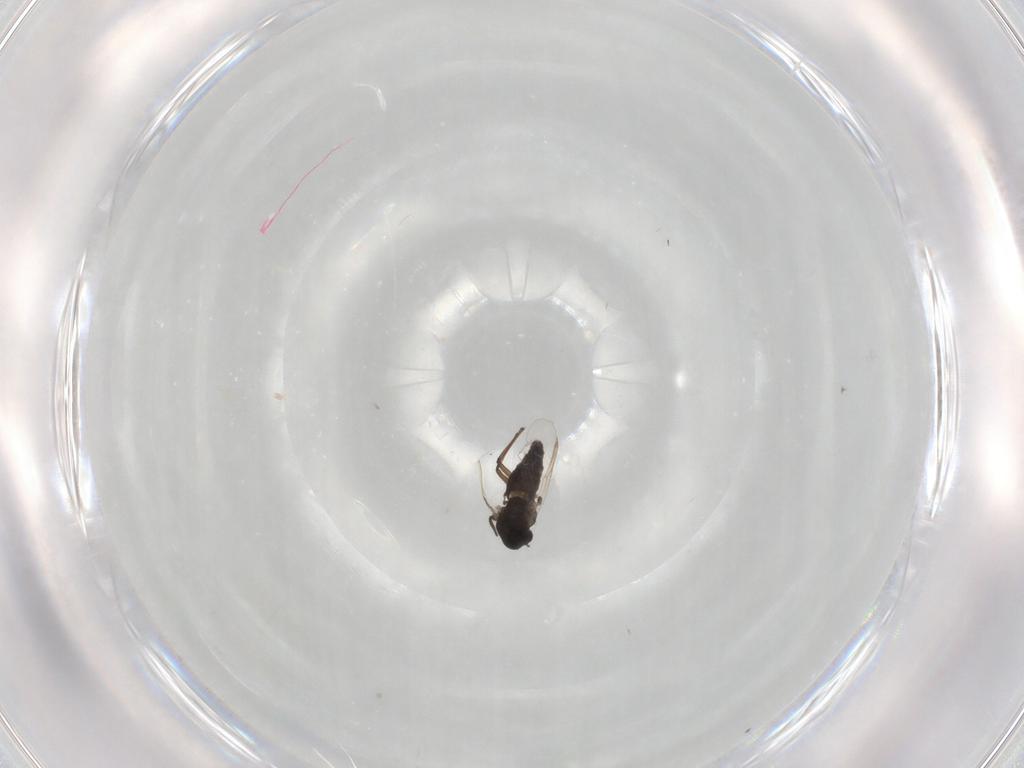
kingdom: Animalia
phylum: Arthropoda
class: Insecta
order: Diptera
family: Chironomidae
